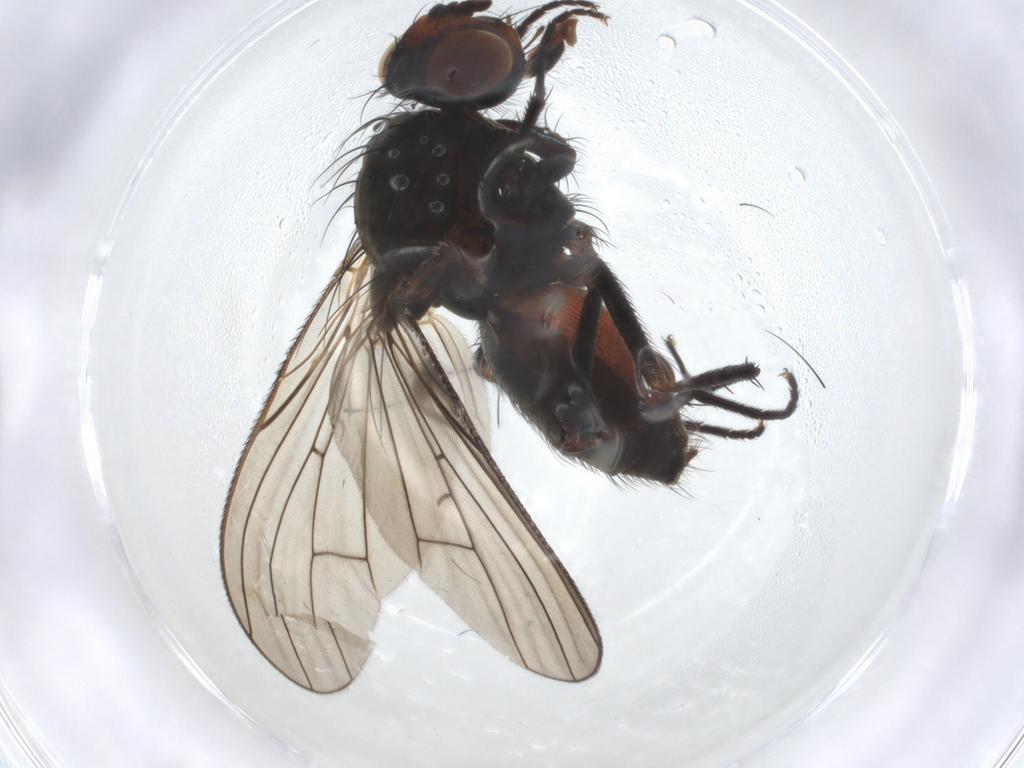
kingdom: Animalia
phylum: Arthropoda
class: Insecta
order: Diptera
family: Anthomyiidae
